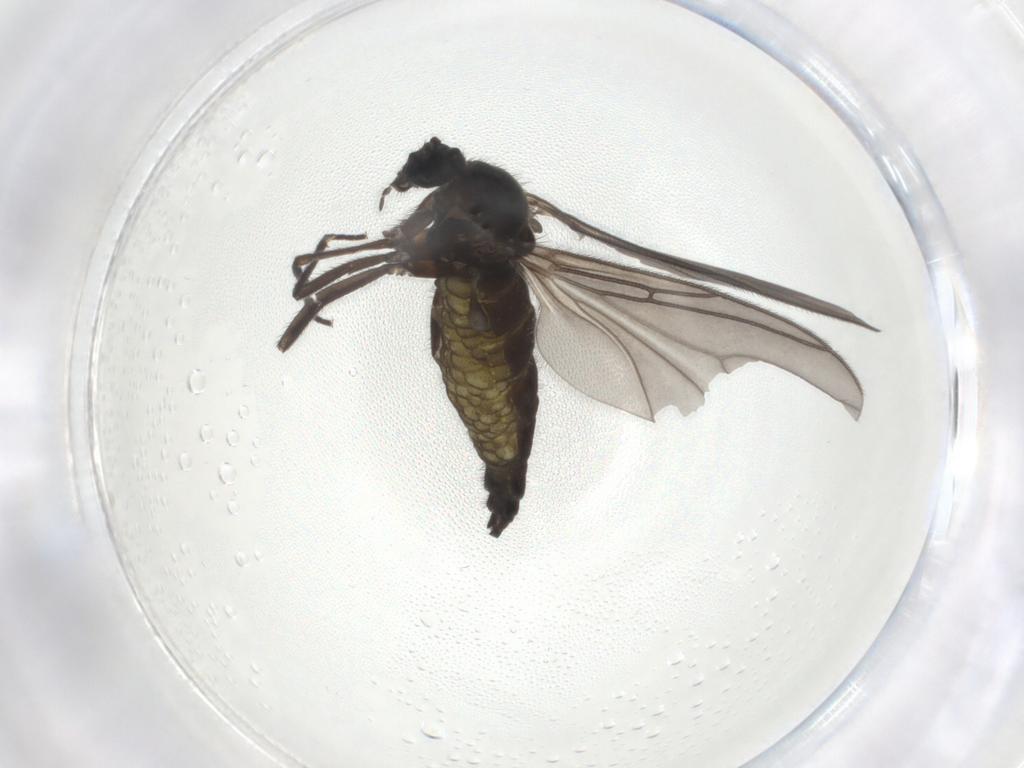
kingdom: Animalia
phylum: Arthropoda
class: Insecta
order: Diptera
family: Sciaridae
